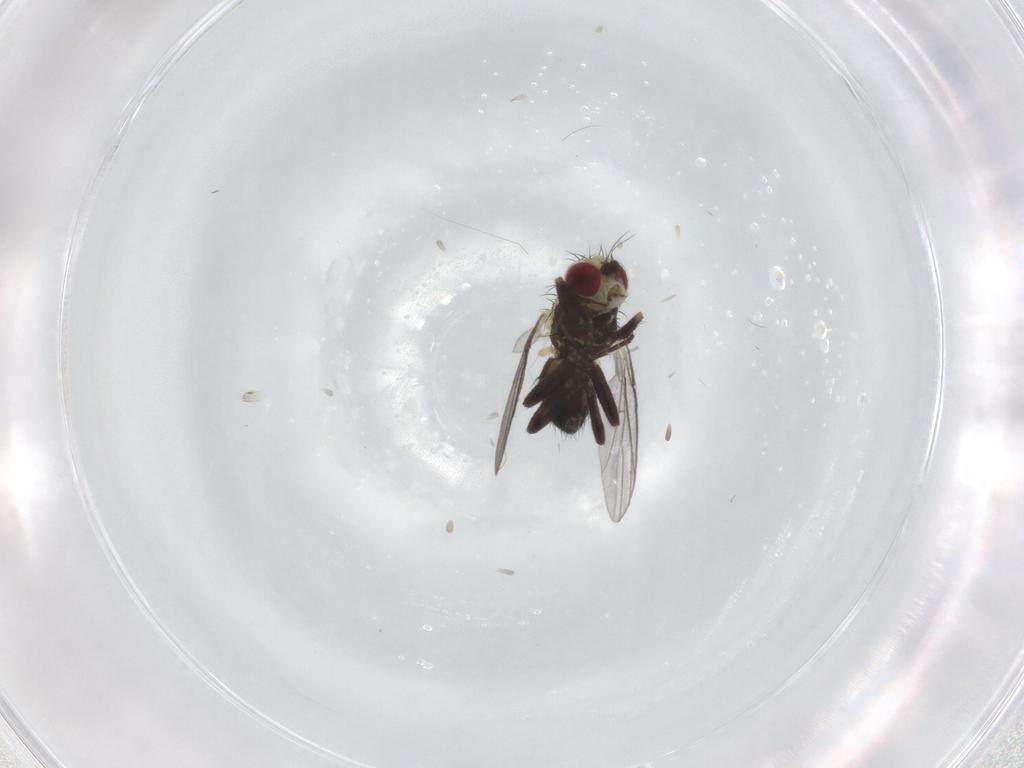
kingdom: Animalia
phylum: Arthropoda
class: Insecta
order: Diptera
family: Agromyzidae
